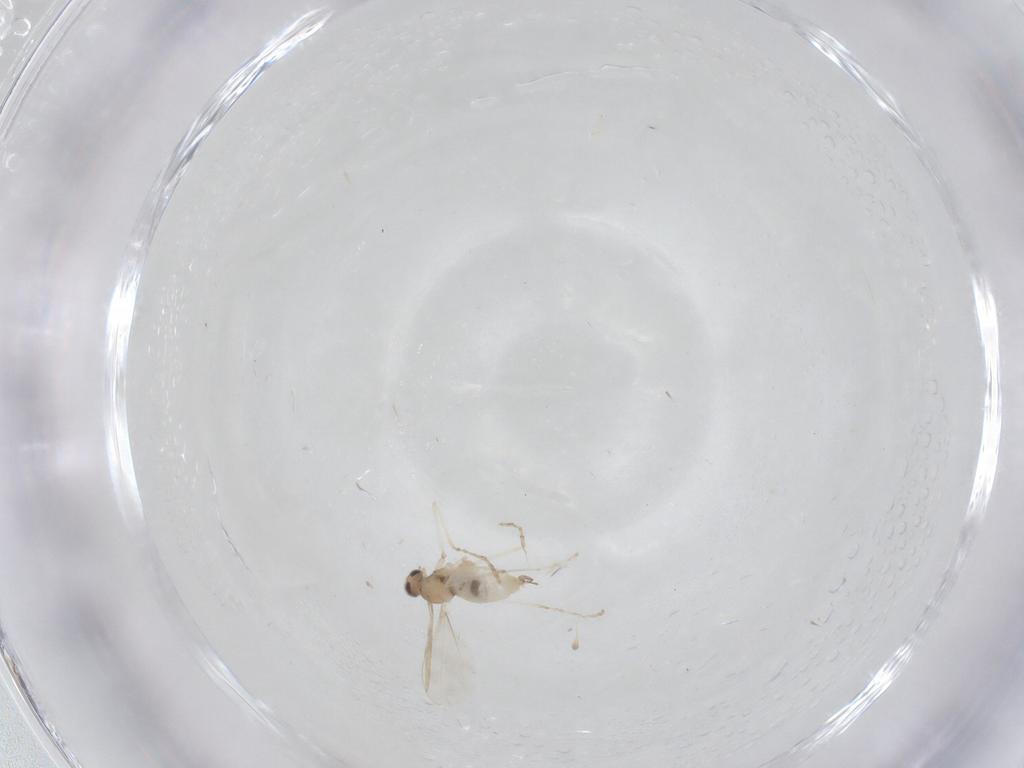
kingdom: Animalia
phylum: Arthropoda
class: Insecta
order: Diptera
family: Cecidomyiidae
